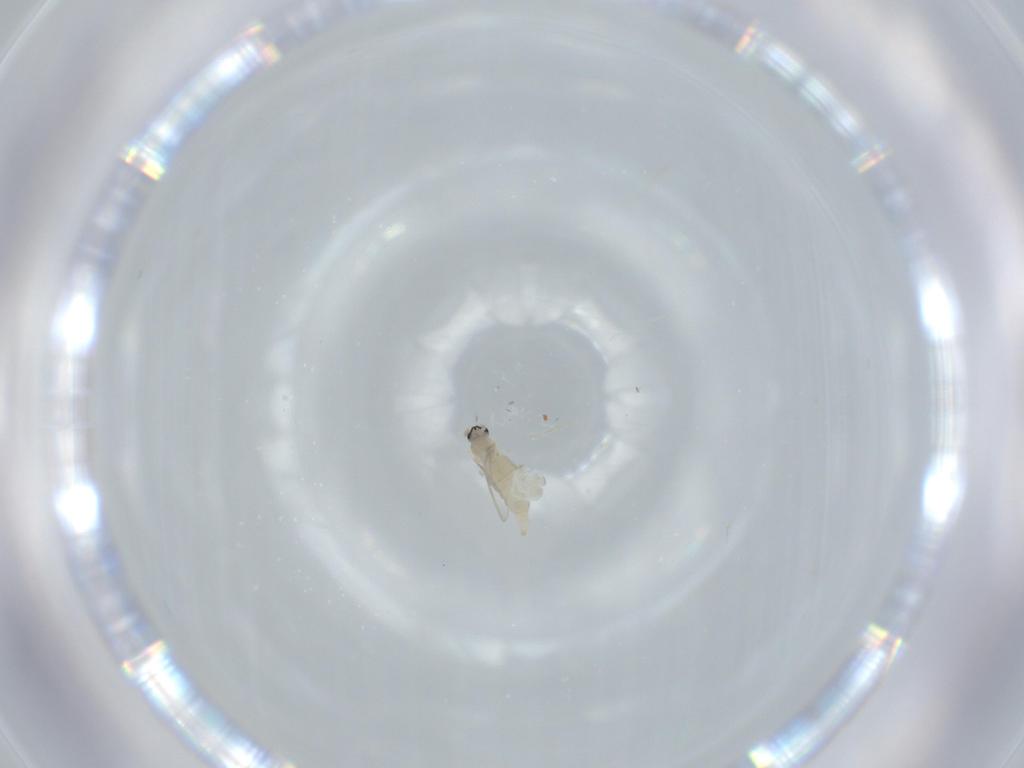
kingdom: Animalia
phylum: Arthropoda
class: Insecta
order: Diptera
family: Cecidomyiidae
